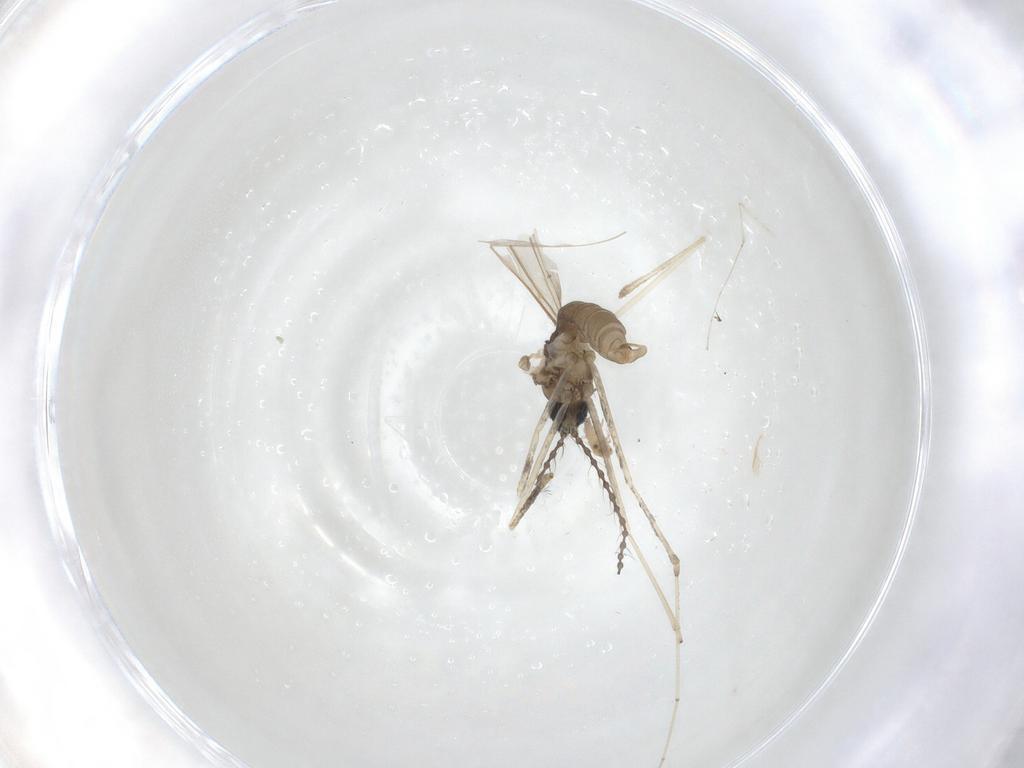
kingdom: Animalia
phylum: Arthropoda
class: Insecta
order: Diptera
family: Cecidomyiidae
